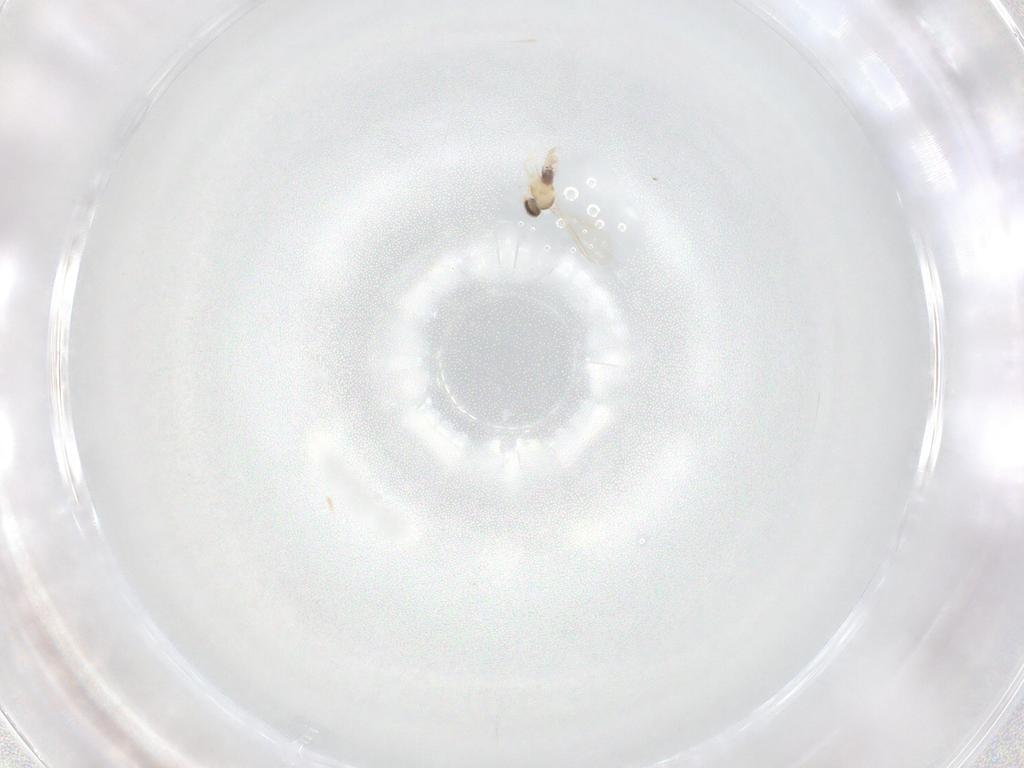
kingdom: Animalia
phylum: Arthropoda
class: Insecta
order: Diptera
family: Cecidomyiidae
